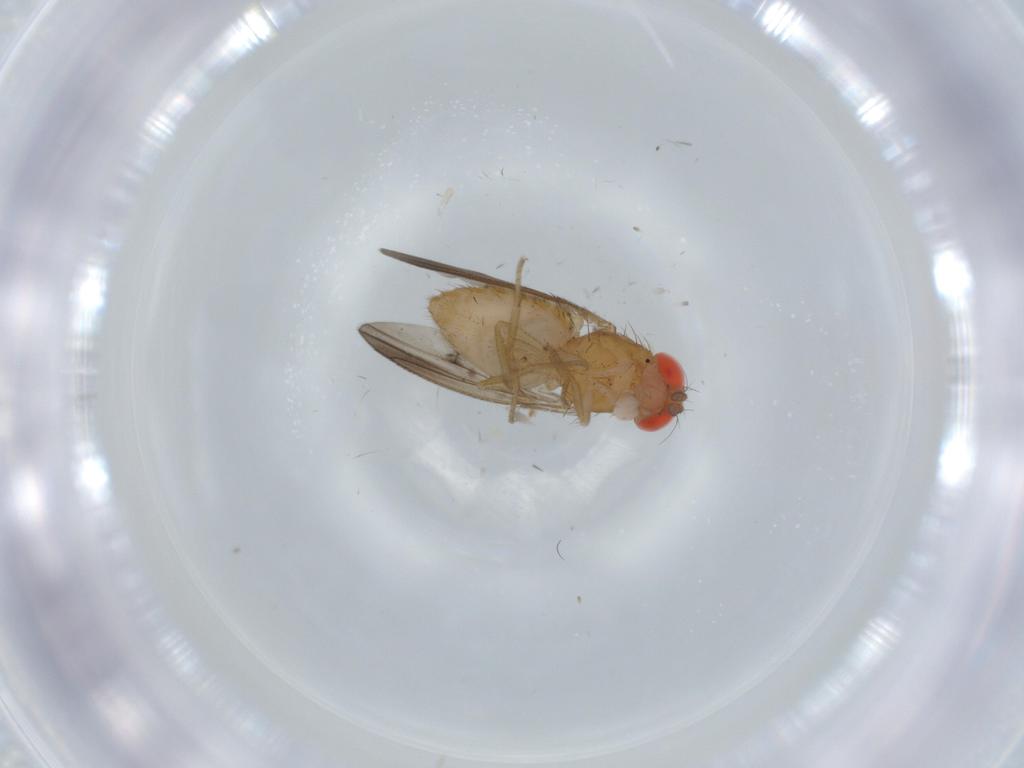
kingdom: Animalia
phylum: Arthropoda
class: Insecta
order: Diptera
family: Drosophilidae
